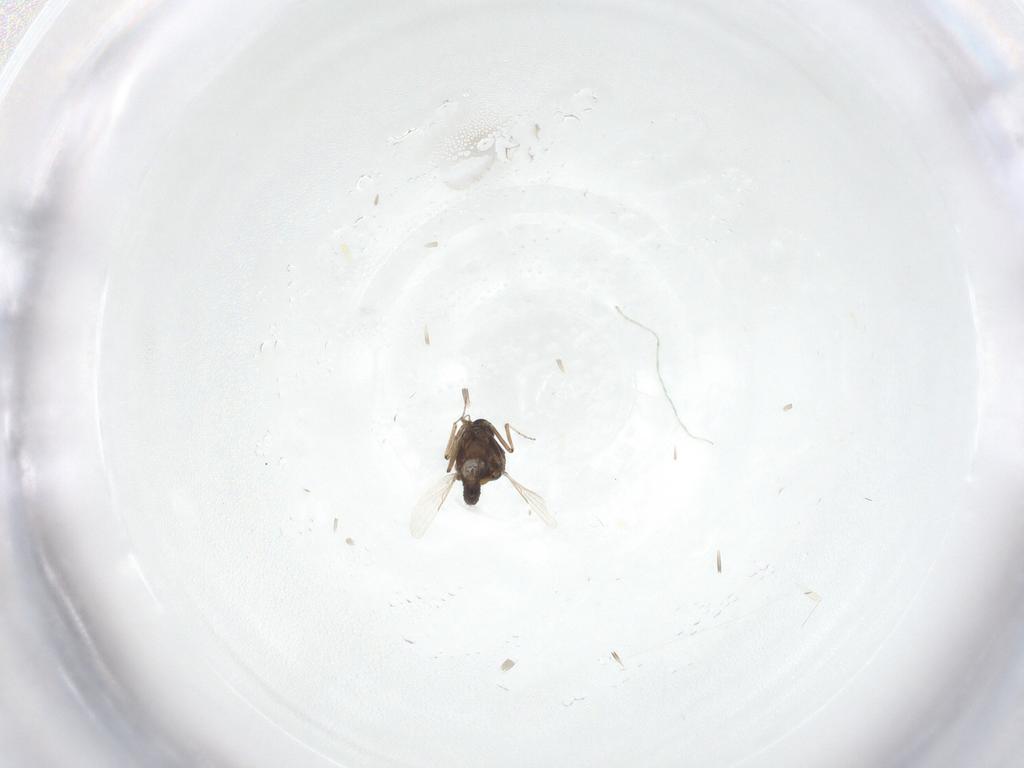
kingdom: Animalia
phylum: Arthropoda
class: Insecta
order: Diptera
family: Ceratopogonidae
